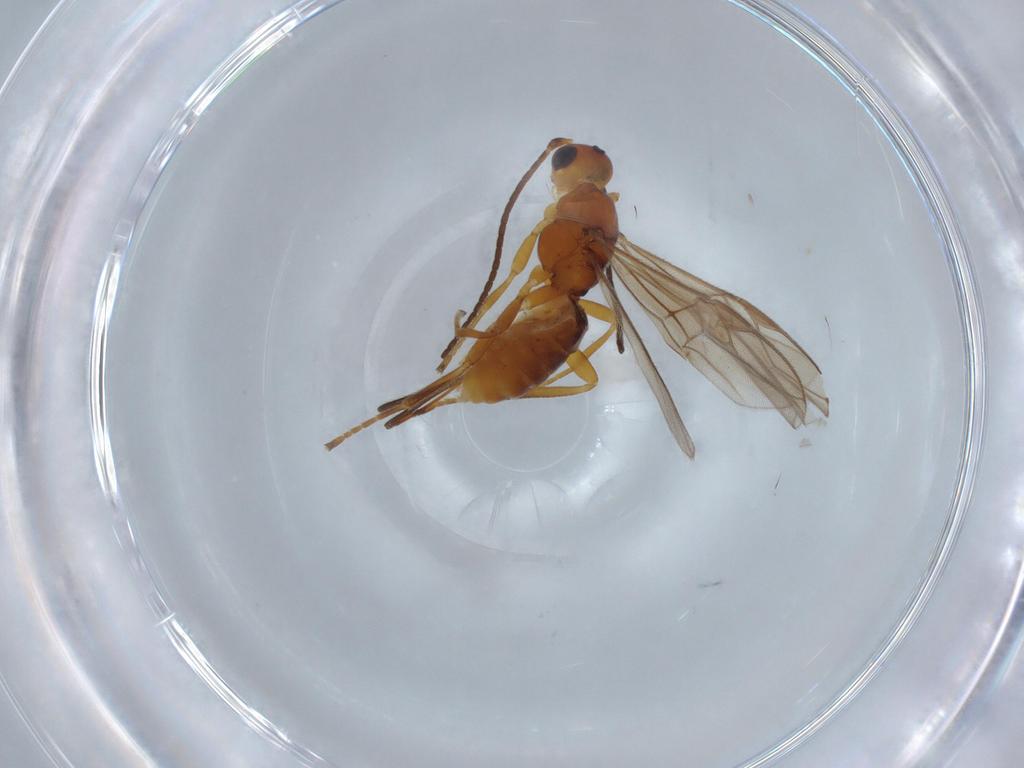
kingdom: Animalia
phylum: Arthropoda
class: Insecta
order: Hymenoptera
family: Braconidae
